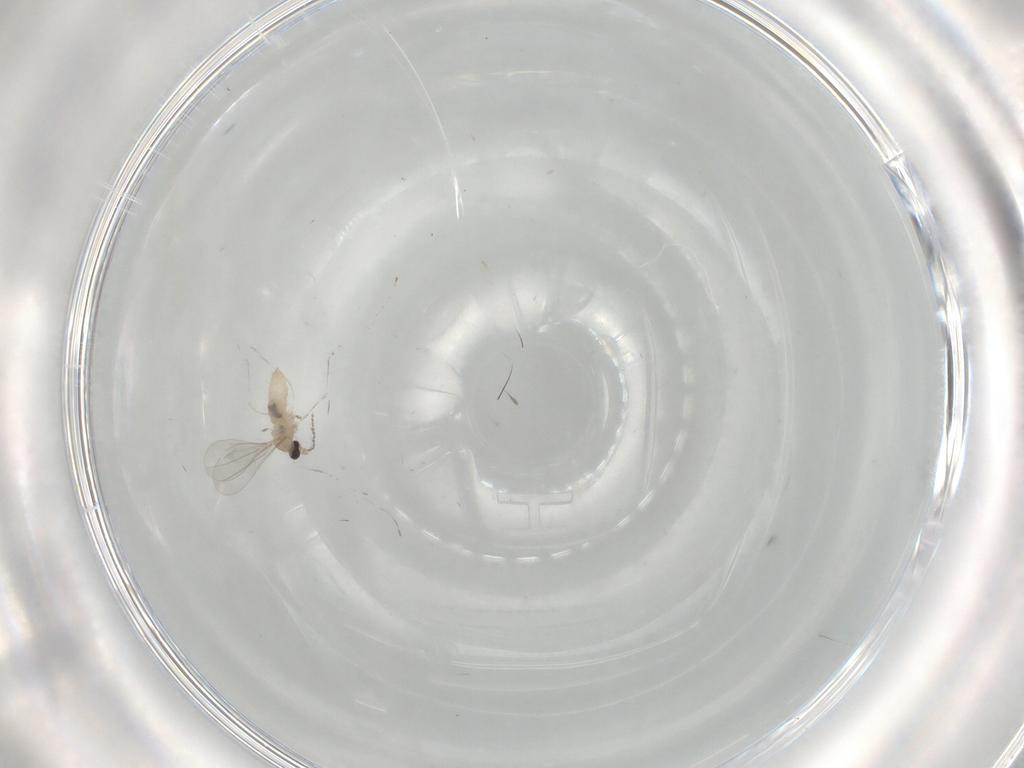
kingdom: Animalia
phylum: Arthropoda
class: Insecta
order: Diptera
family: Cecidomyiidae
